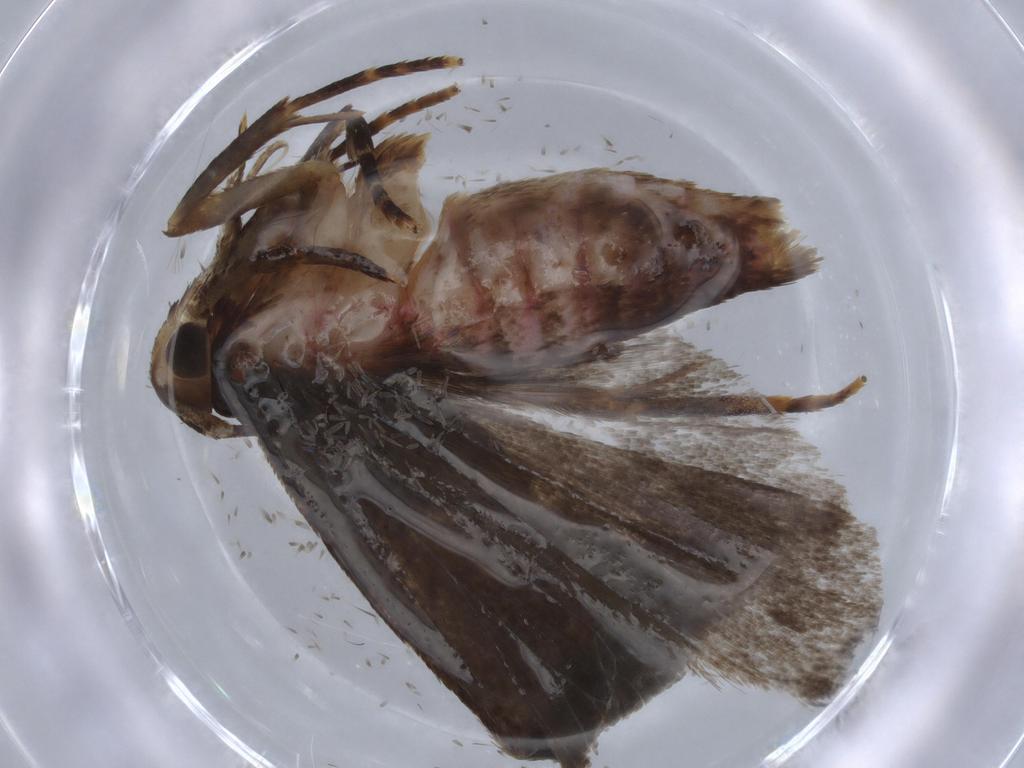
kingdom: Animalia
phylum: Arthropoda
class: Insecta
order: Lepidoptera
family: Autostichidae
